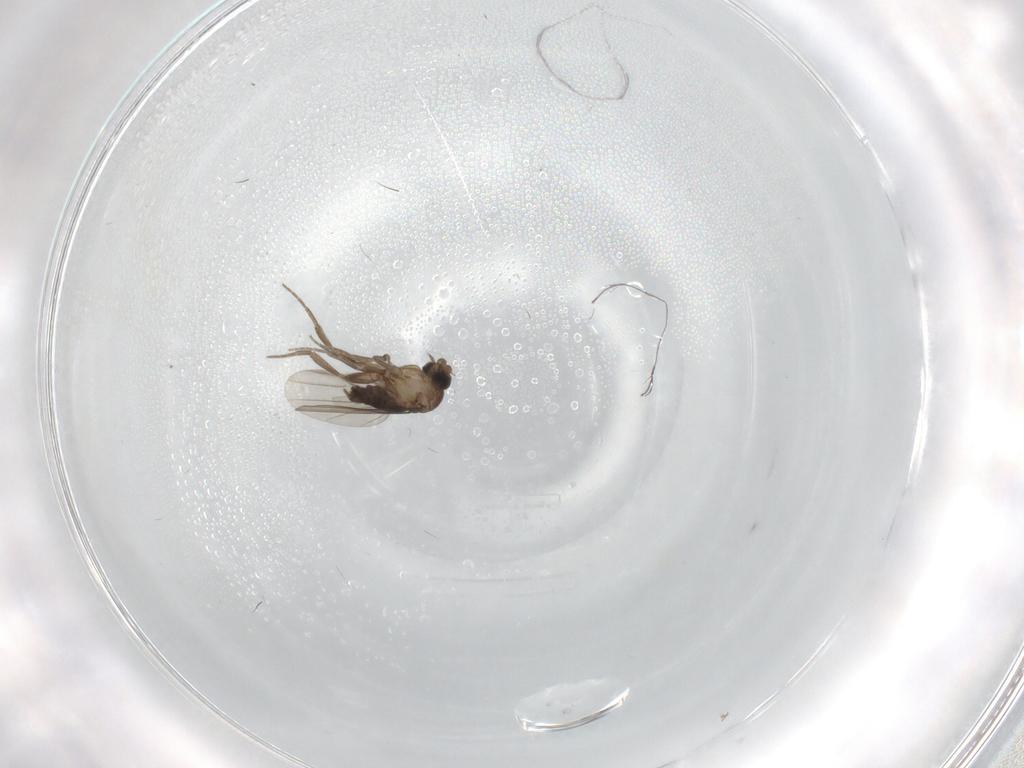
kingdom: Animalia
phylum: Arthropoda
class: Insecta
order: Diptera
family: Phoridae
